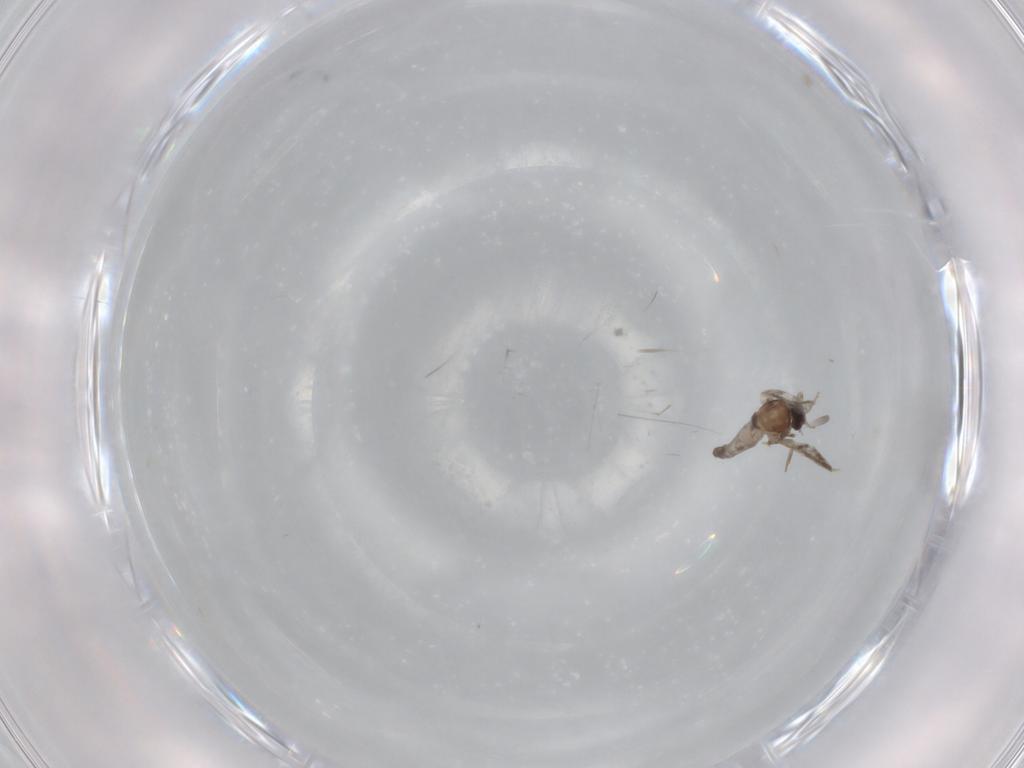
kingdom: Animalia
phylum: Arthropoda
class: Insecta
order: Diptera
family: Ceratopogonidae
